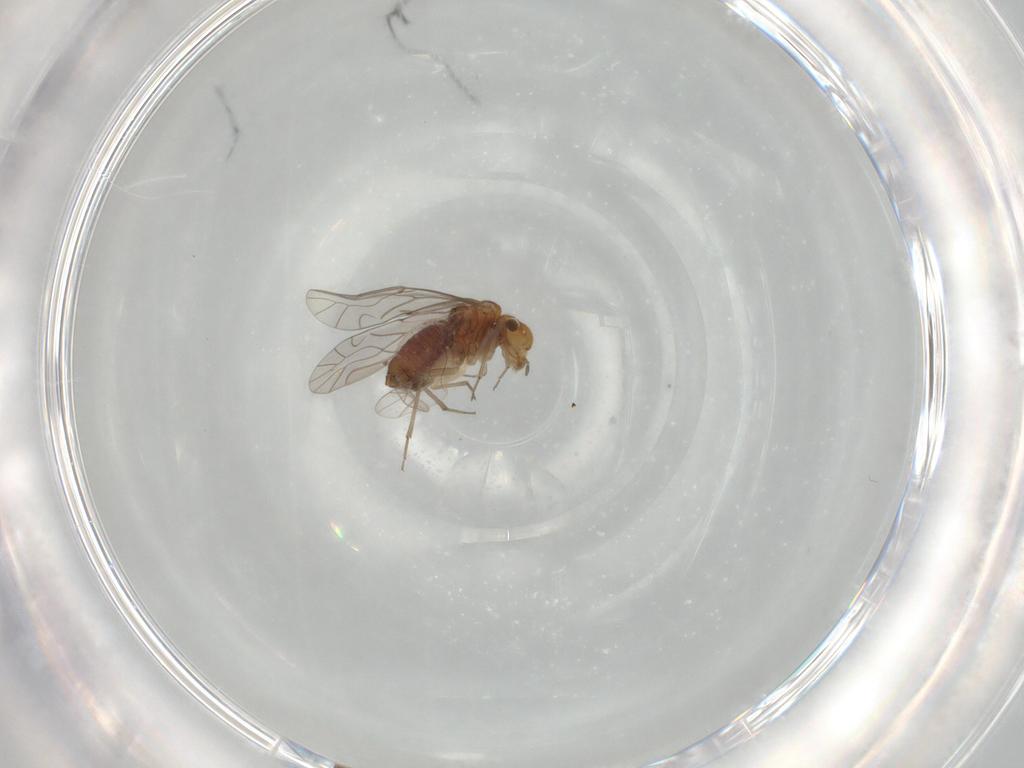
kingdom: Animalia
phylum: Arthropoda
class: Insecta
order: Psocodea
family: Lachesillidae
